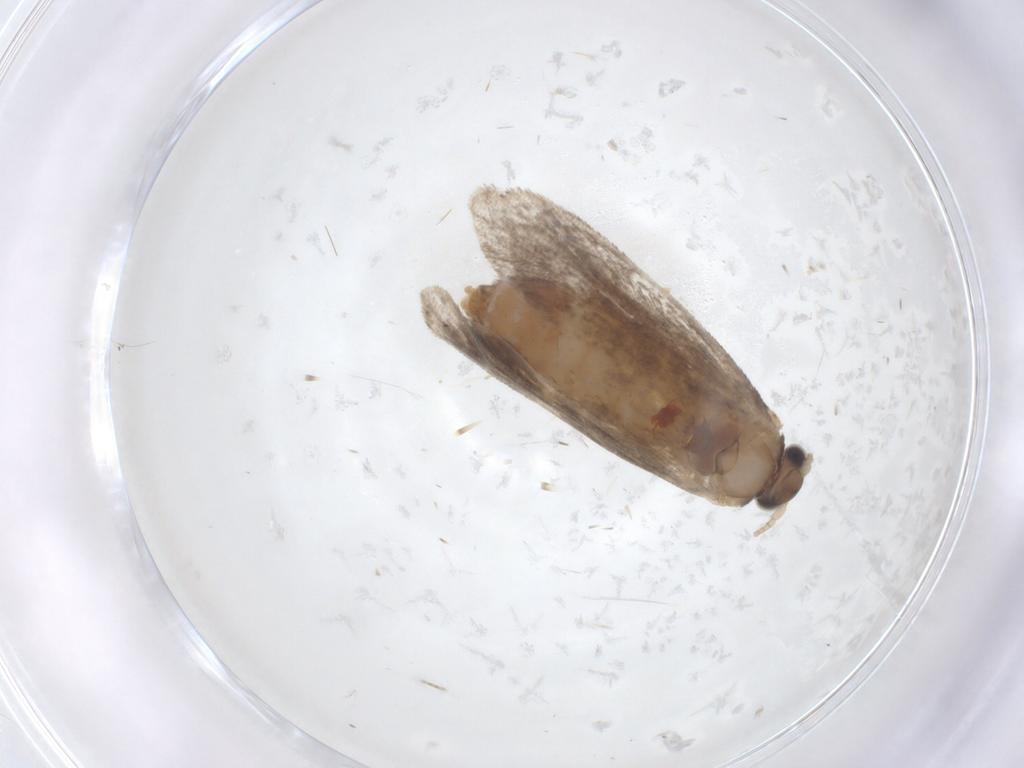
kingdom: Animalia
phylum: Arthropoda
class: Insecta
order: Lepidoptera
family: Tineidae
